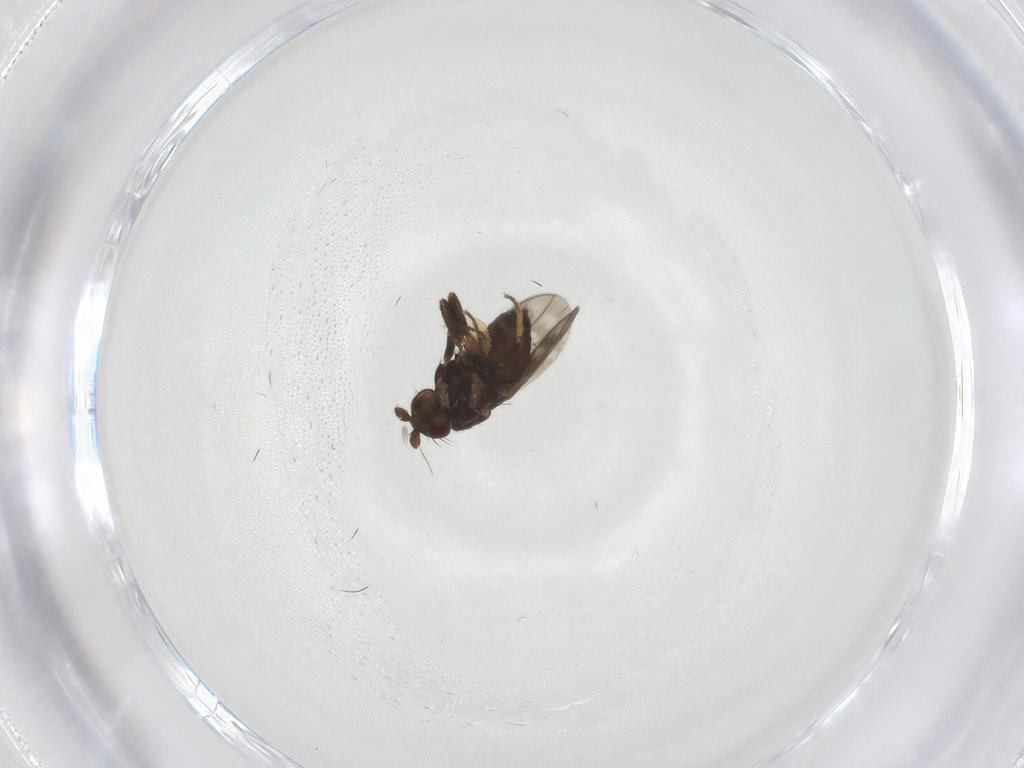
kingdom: Animalia
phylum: Arthropoda
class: Insecta
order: Diptera
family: Sphaeroceridae
